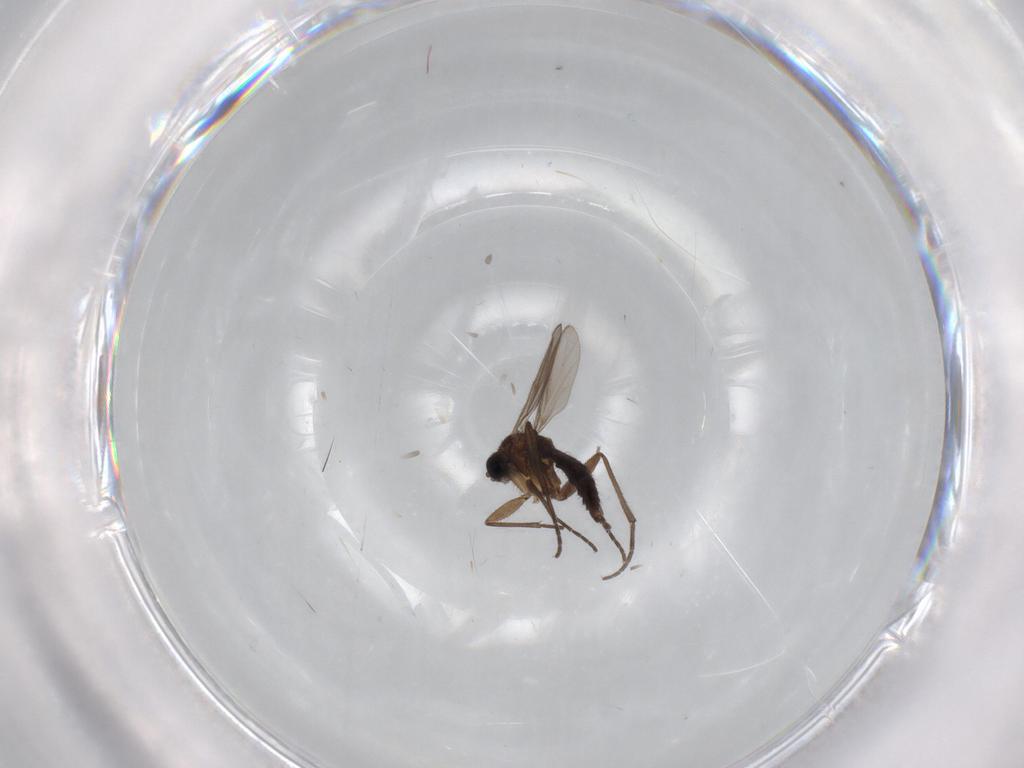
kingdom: Animalia
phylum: Arthropoda
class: Insecta
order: Diptera
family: Sciaridae
